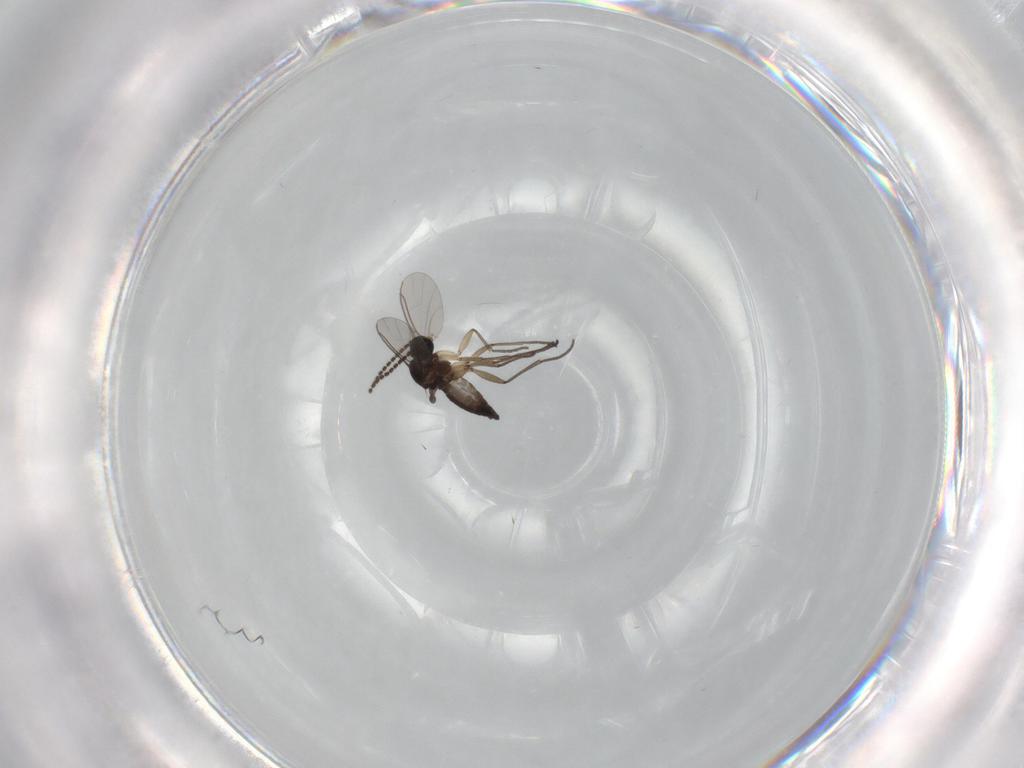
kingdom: Animalia
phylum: Arthropoda
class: Insecta
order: Diptera
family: Sciaridae
